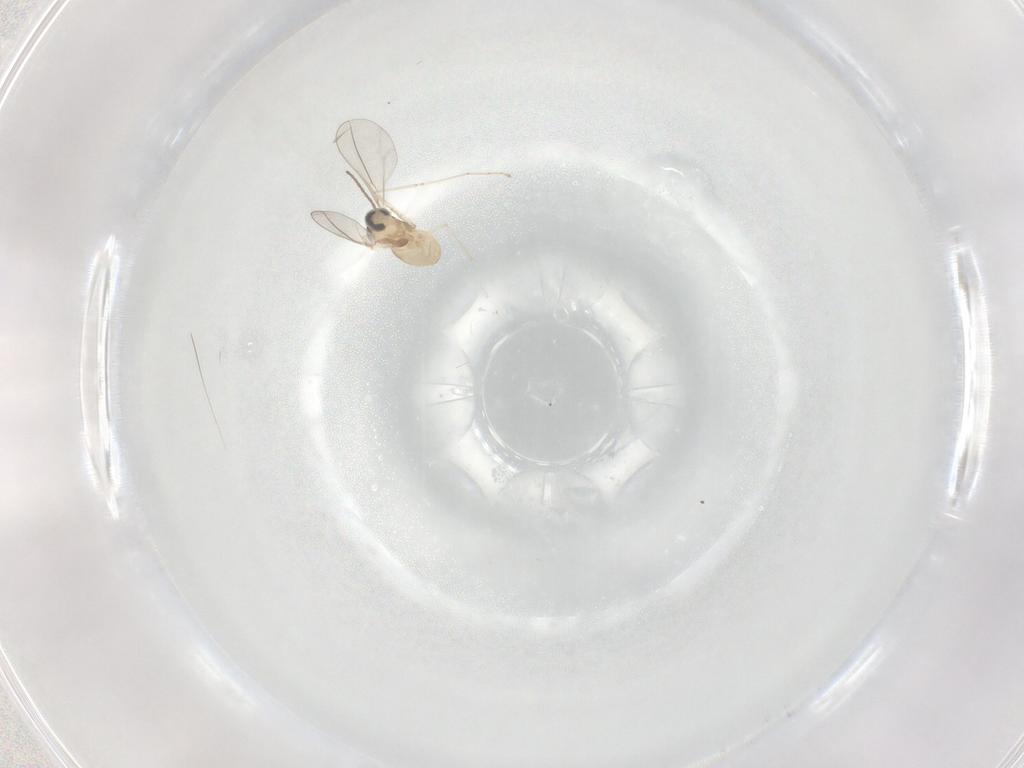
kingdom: Animalia
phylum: Arthropoda
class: Insecta
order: Diptera
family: Cecidomyiidae
